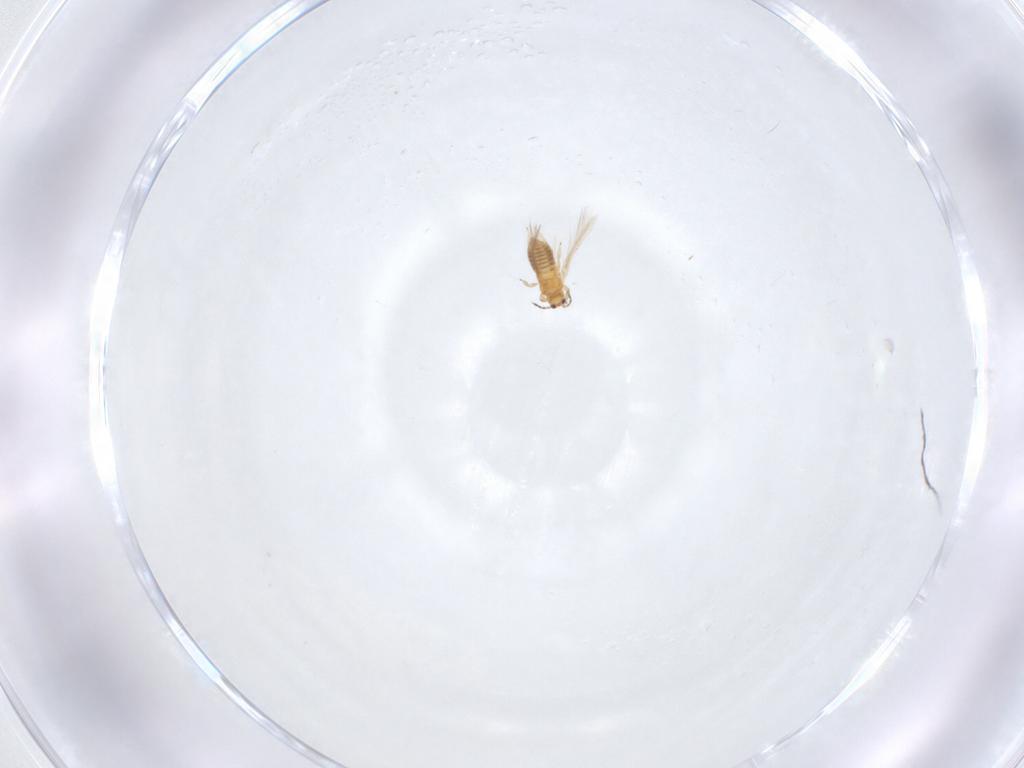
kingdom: Animalia
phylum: Arthropoda
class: Insecta
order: Thysanoptera
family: Thripidae
